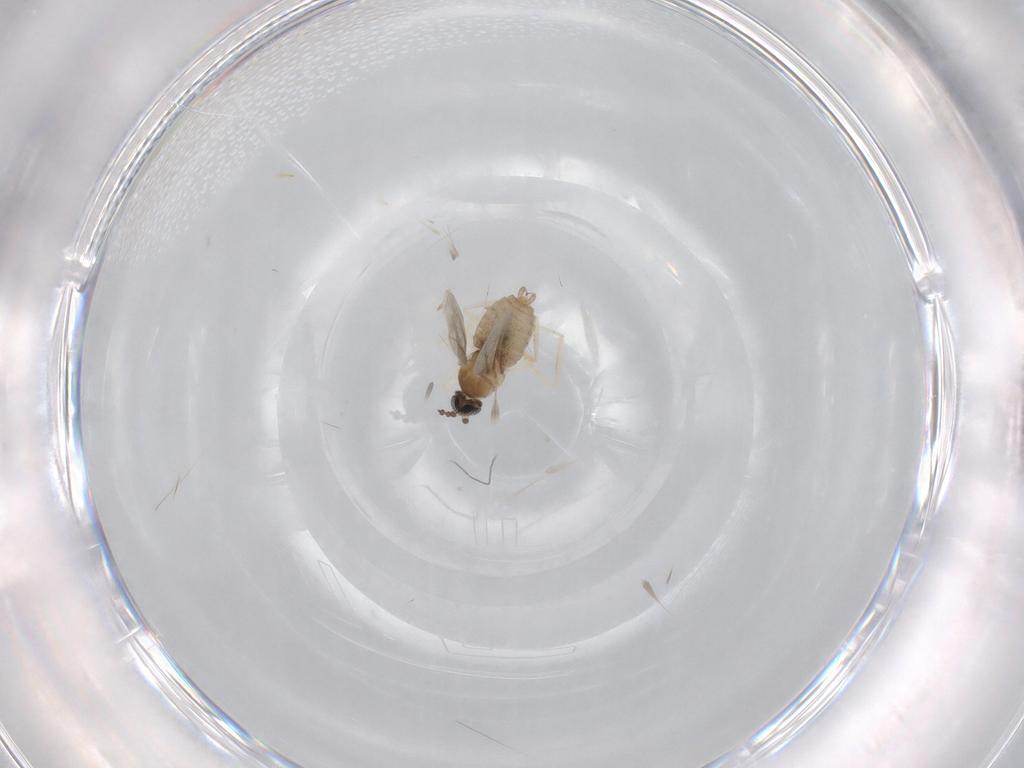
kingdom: Animalia
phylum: Arthropoda
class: Insecta
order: Diptera
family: Cecidomyiidae
